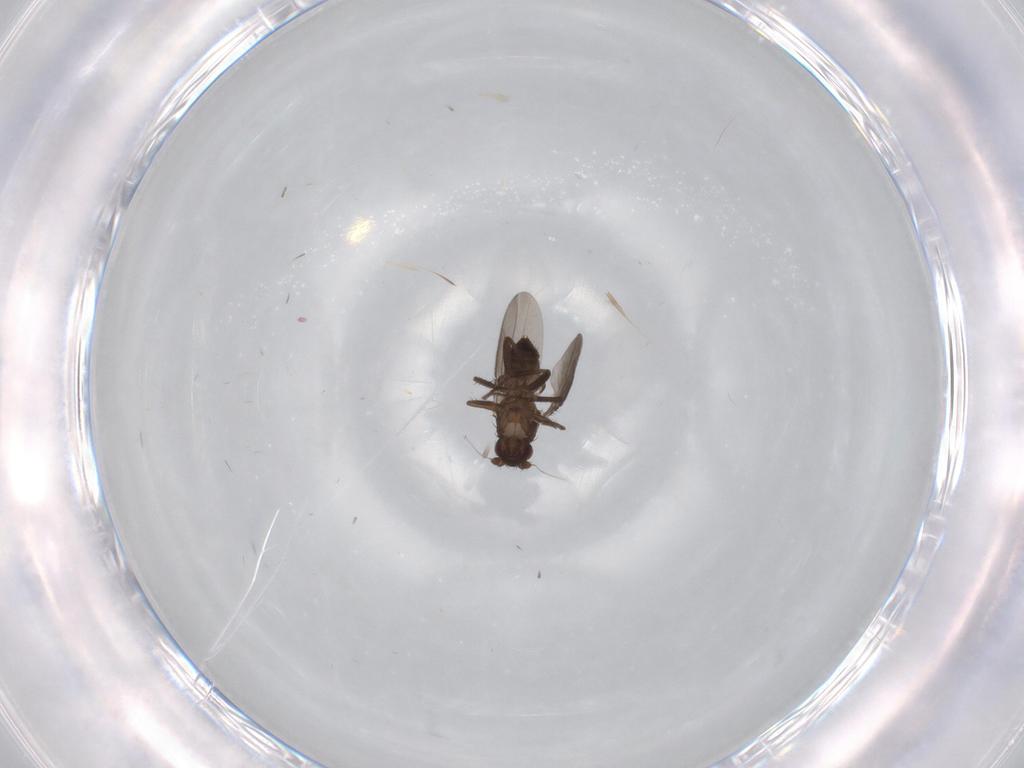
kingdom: Animalia
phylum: Arthropoda
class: Insecta
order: Diptera
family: Sphaeroceridae
